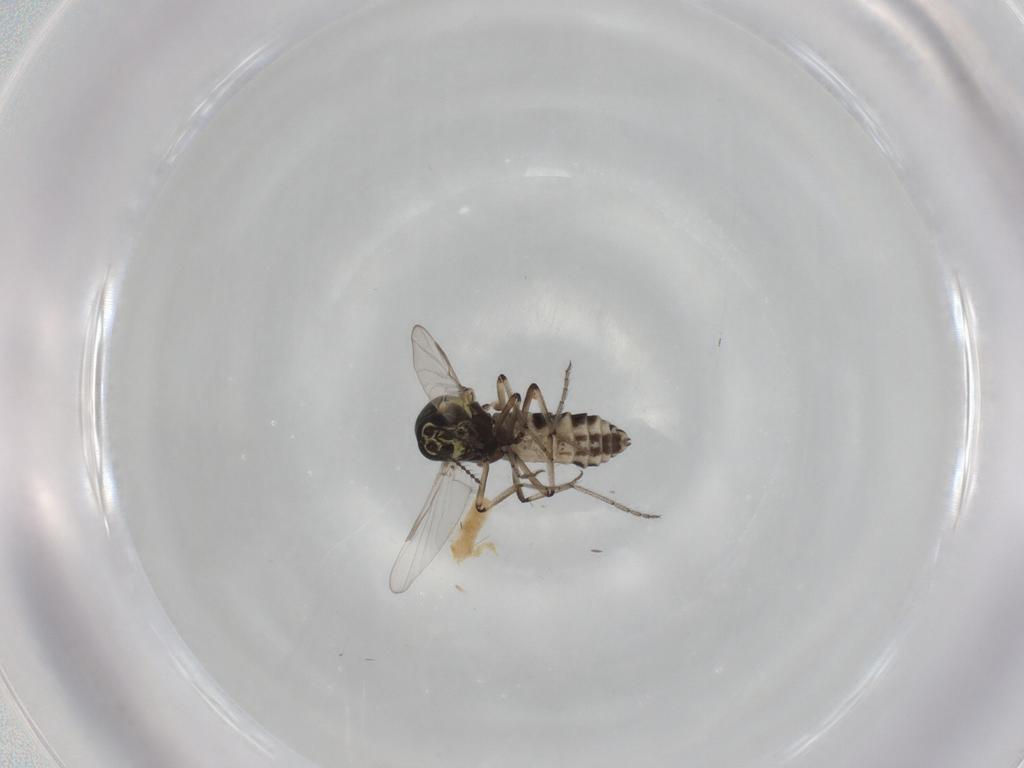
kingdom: Animalia
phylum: Arthropoda
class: Insecta
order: Diptera
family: Ceratopogonidae
